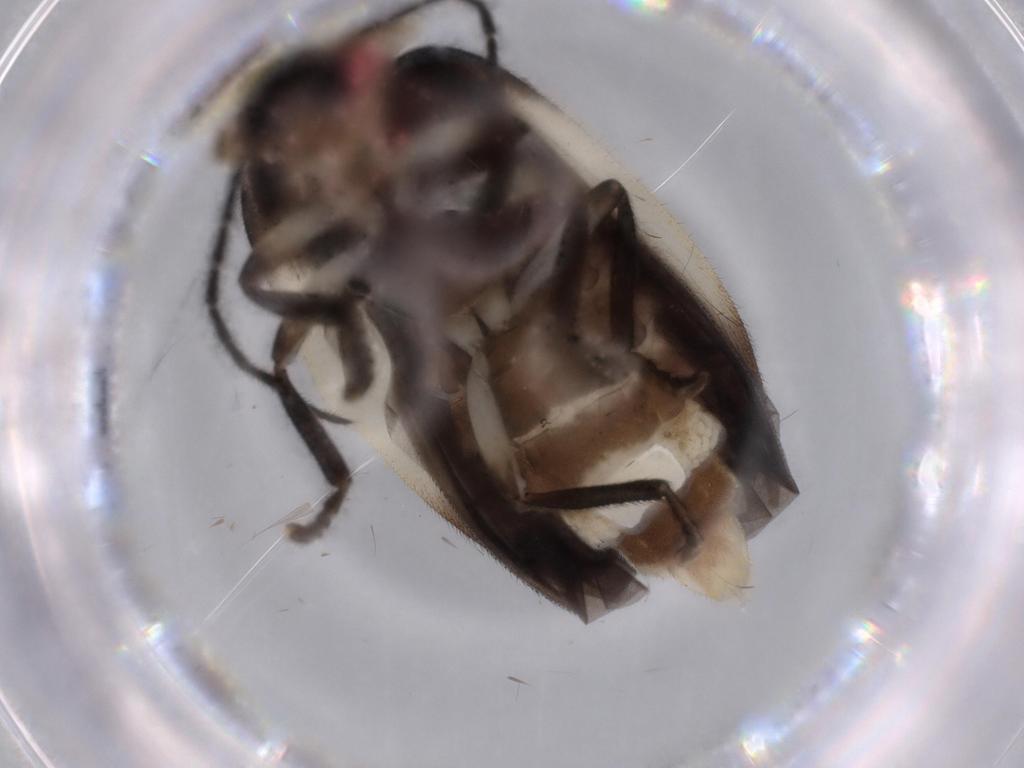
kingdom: Animalia
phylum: Arthropoda
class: Insecta
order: Coleoptera
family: Lampyridae
